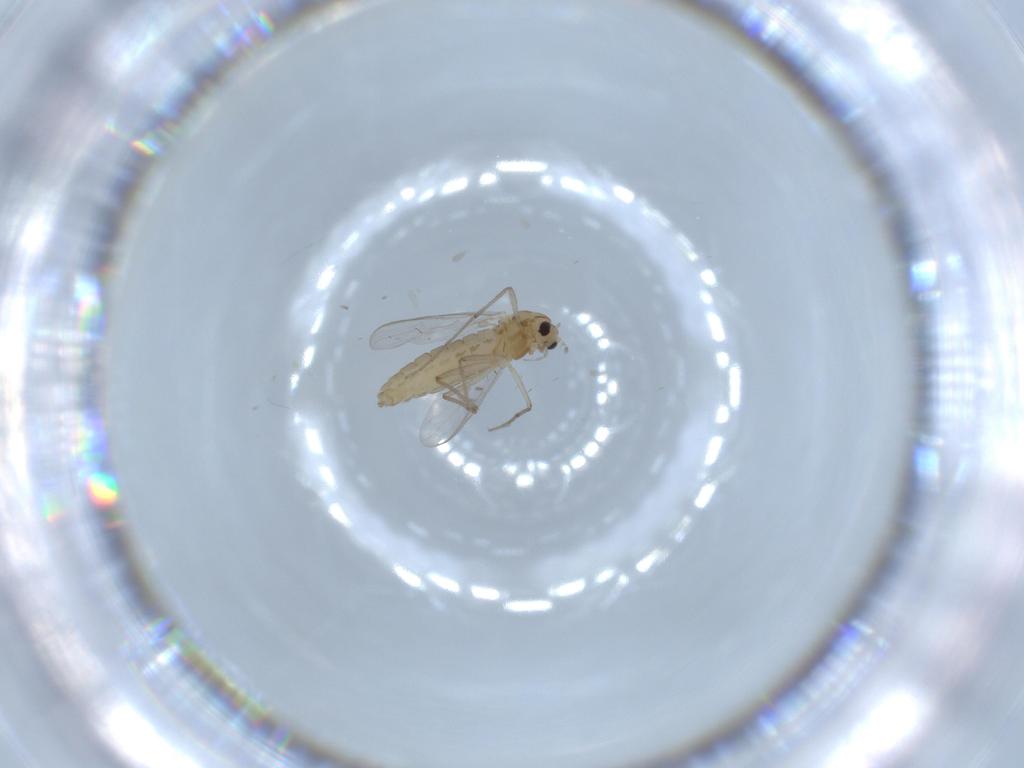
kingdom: Animalia
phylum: Arthropoda
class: Insecta
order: Diptera
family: Chironomidae
